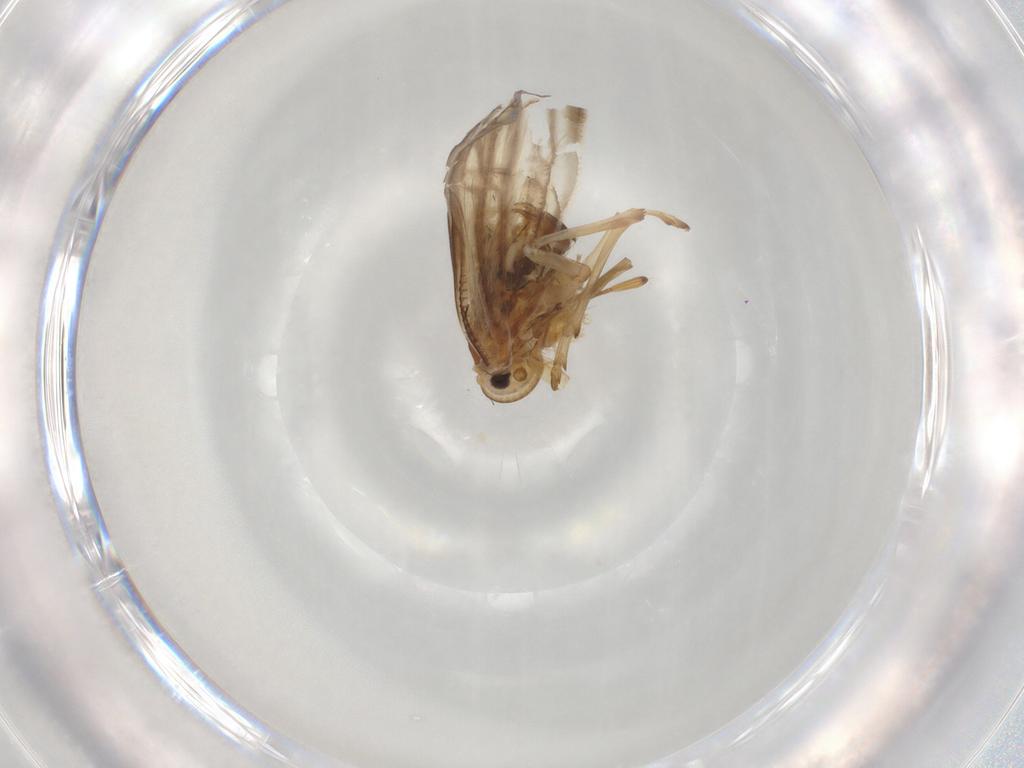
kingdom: Animalia
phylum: Arthropoda
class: Insecta
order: Hemiptera
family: Meenoplidae
